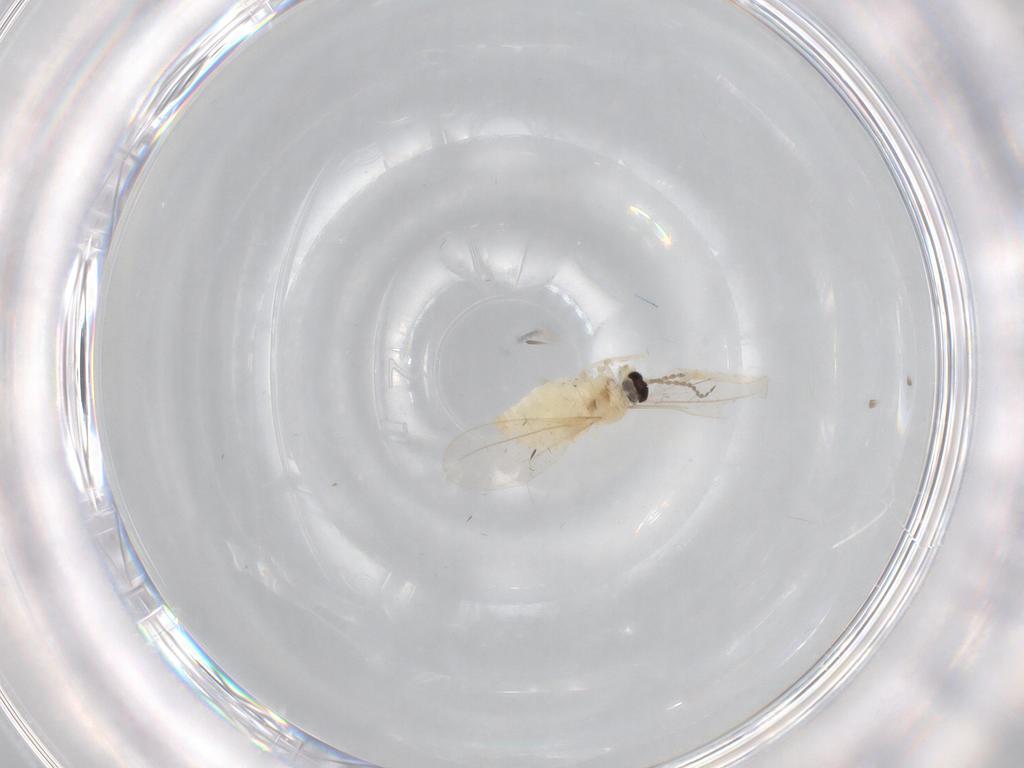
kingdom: Animalia
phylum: Arthropoda
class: Insecta
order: Diptera
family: Cecidomyiidae
